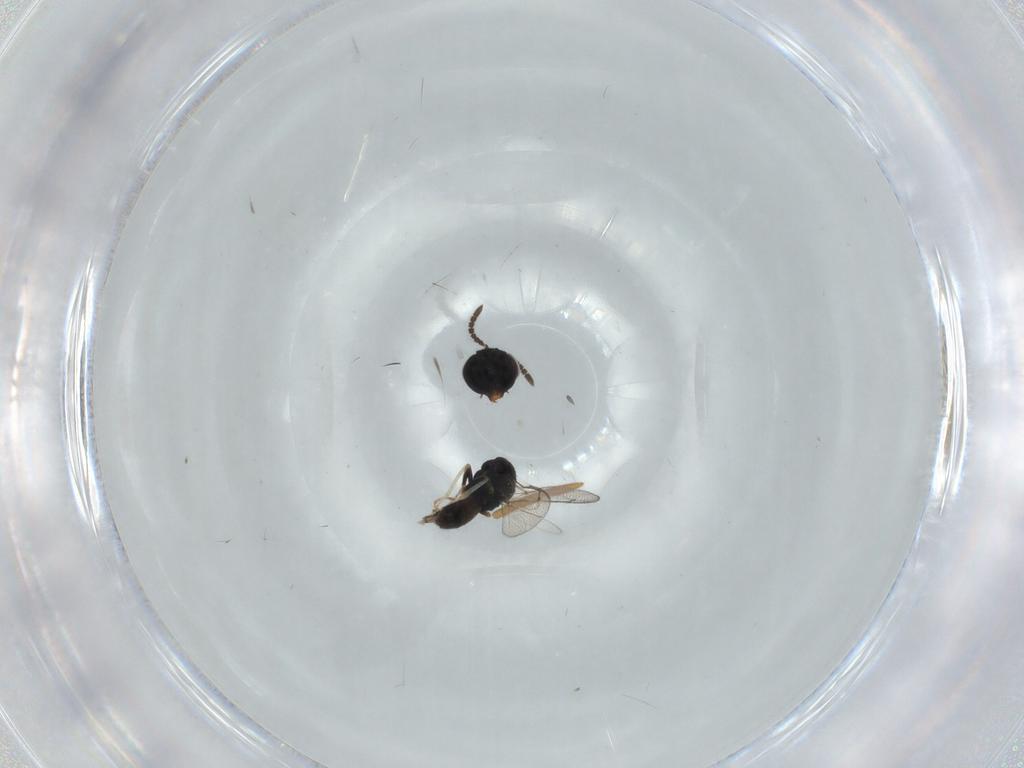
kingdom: Animalia
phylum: Arthropoda
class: Insecta
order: Hymenoptera
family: Pteromalidae
